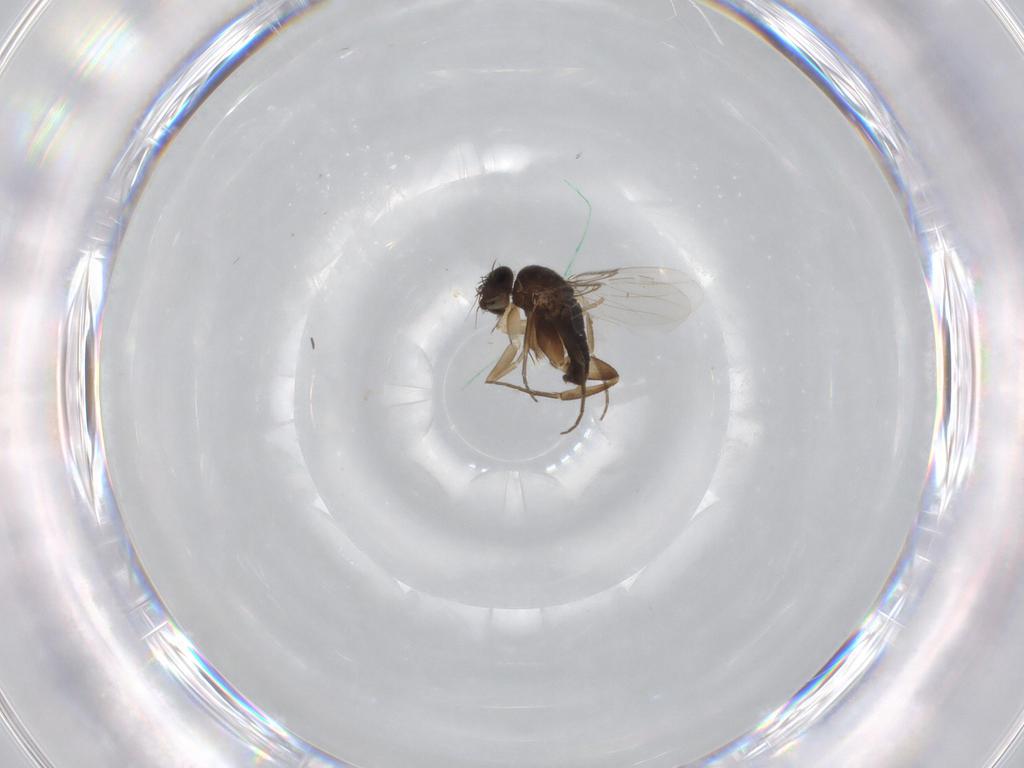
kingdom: Animalia
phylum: Arthropoda
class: Insecta
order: Diptera
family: Phoridae
